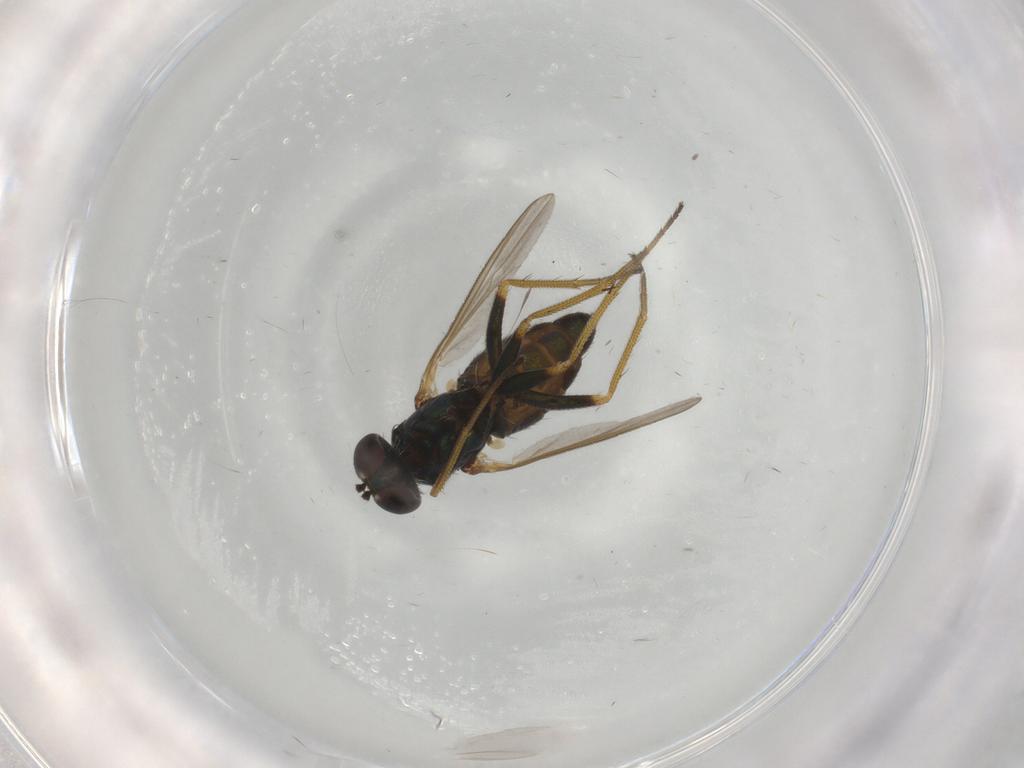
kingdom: Animalia
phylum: Arthropoda
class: Insecta
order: Diptera
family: Dolichopodidae
